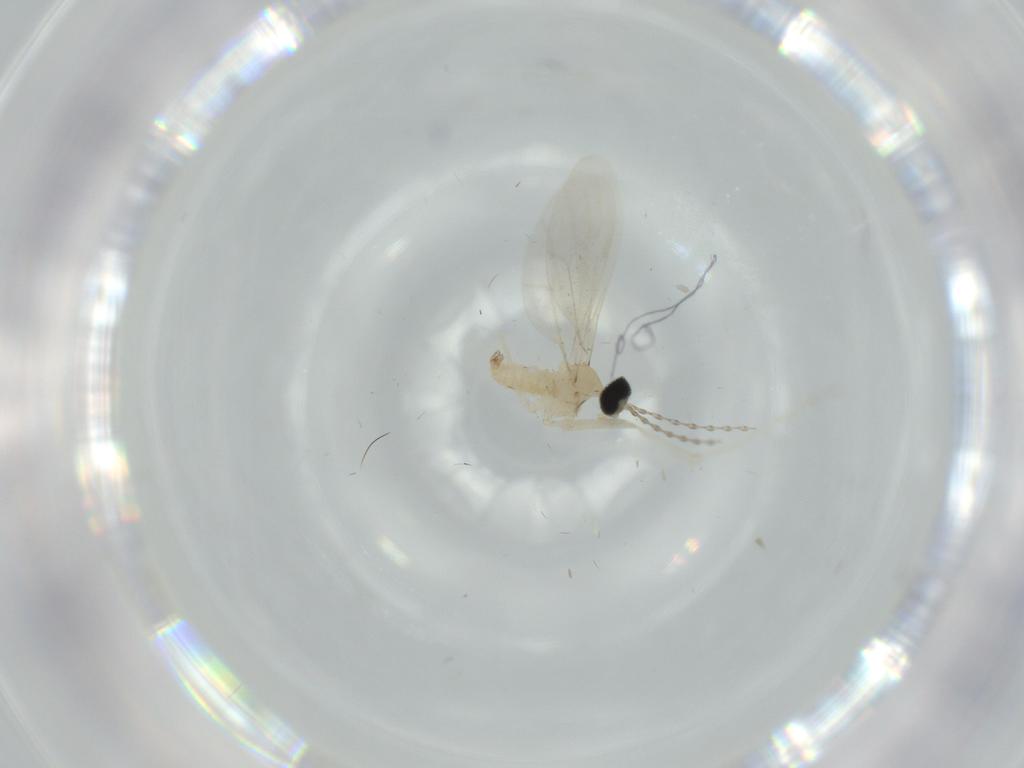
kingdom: Animalia
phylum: Arthropoda
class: Insecta
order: Diptera
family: Cecidomyiidae
